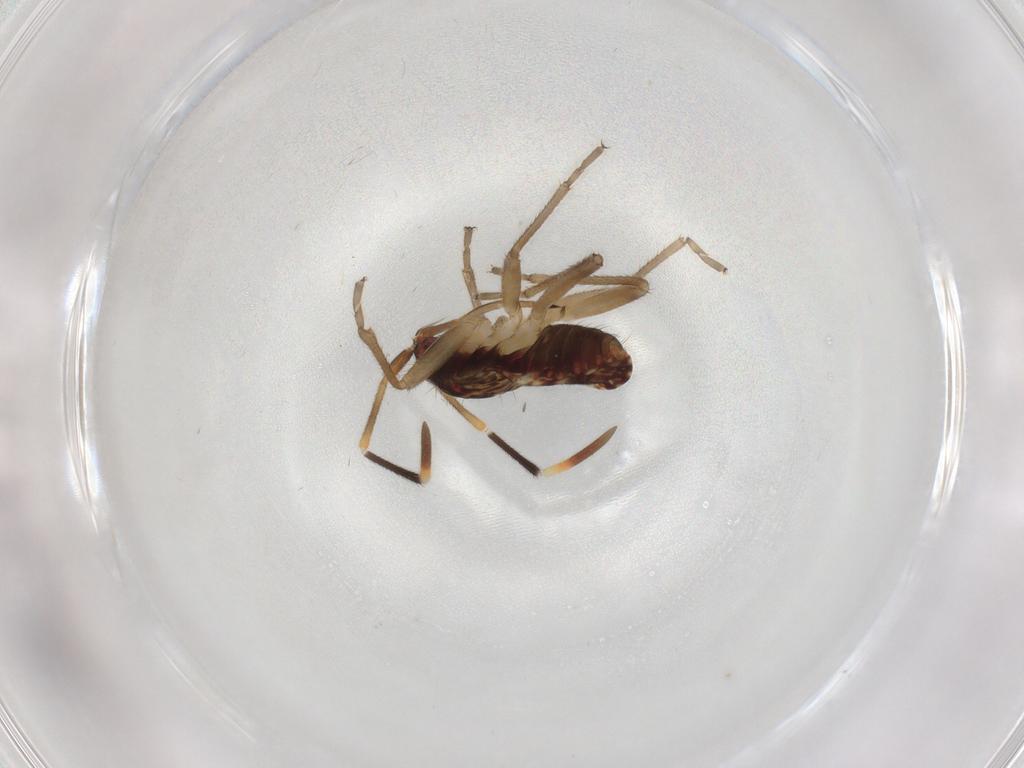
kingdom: Animalia
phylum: Arthropoda
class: Insecta
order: Hemiptera
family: Rhyparochromidae
